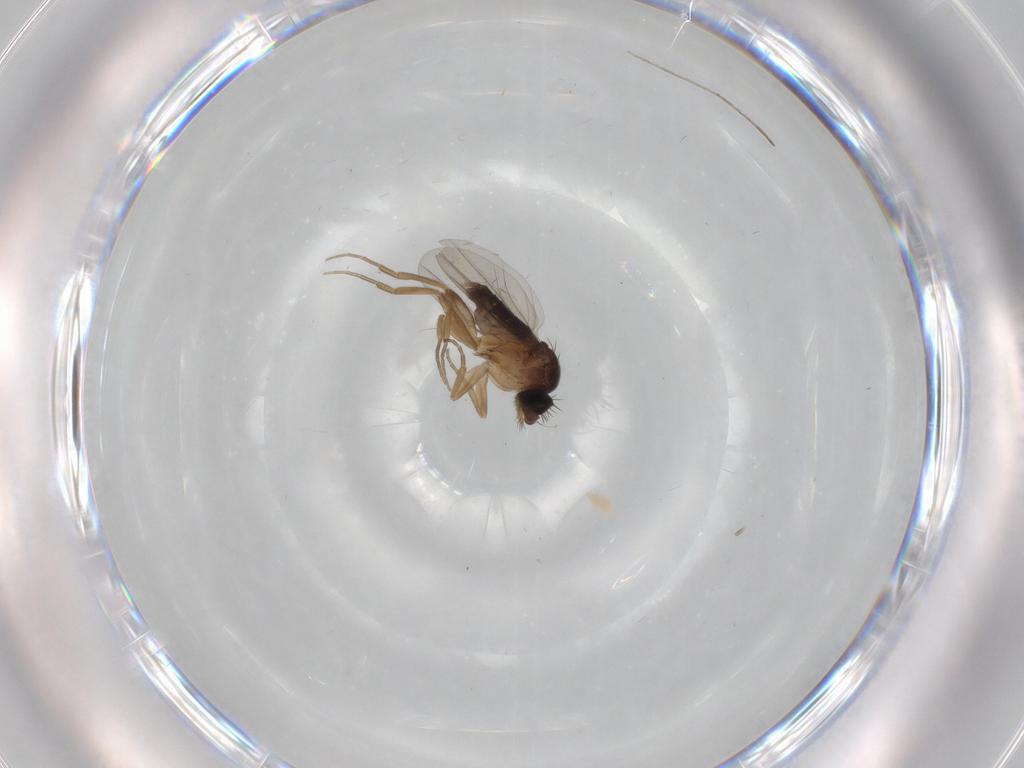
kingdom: Animalia
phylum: Arthropoda
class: Insecta
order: Diptera
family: Phoridae
